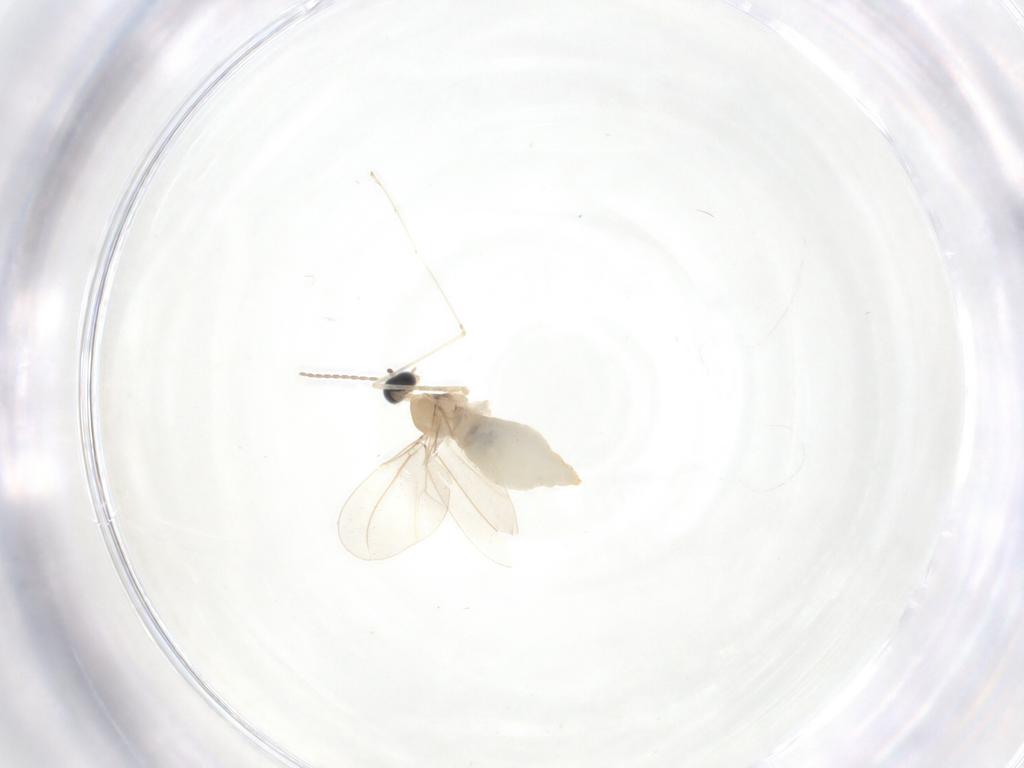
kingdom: Animalia
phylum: Arthropoda
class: Insecta
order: Diptera
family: Cecidomyiidae
